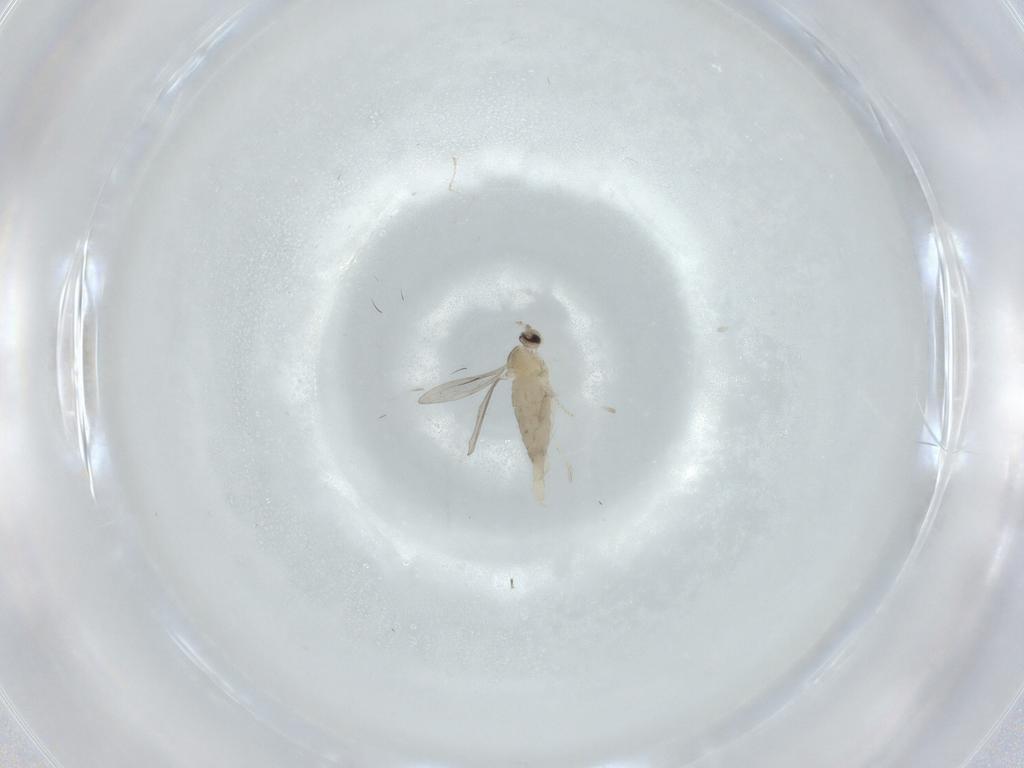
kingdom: Animalia
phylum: Arthropoda
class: Insecta
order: Diptera
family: Cecidomyiidae
